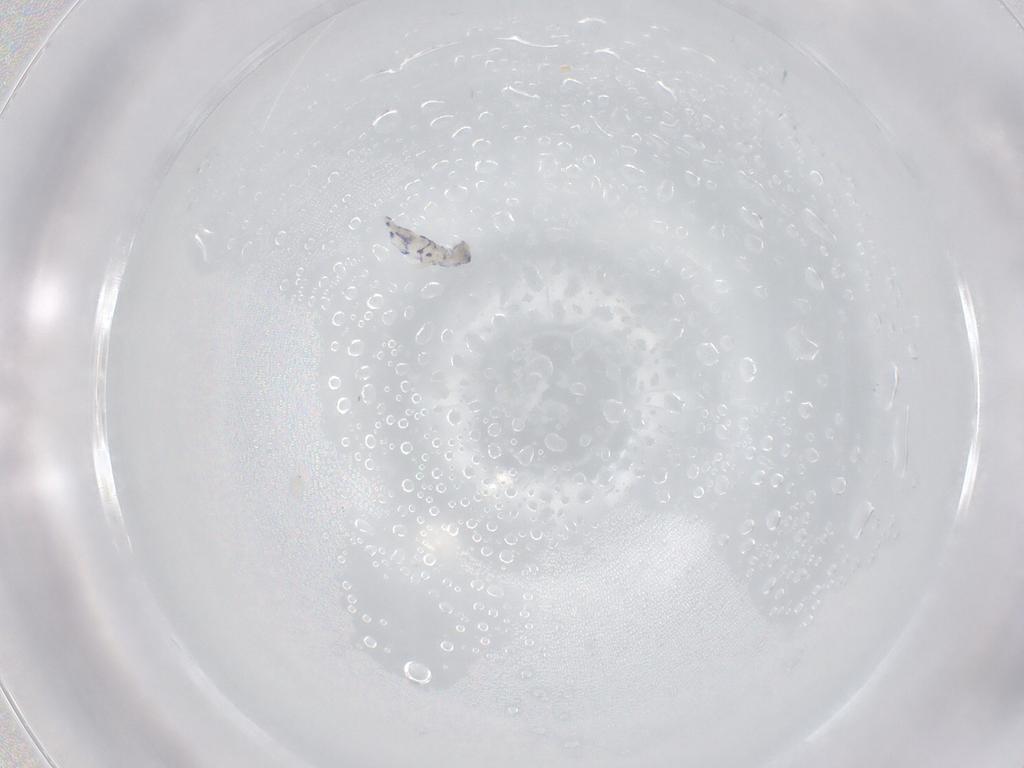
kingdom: Animalia
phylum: Arthropoda
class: Collembola
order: Entomobryomorpha
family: Entomobryidae
